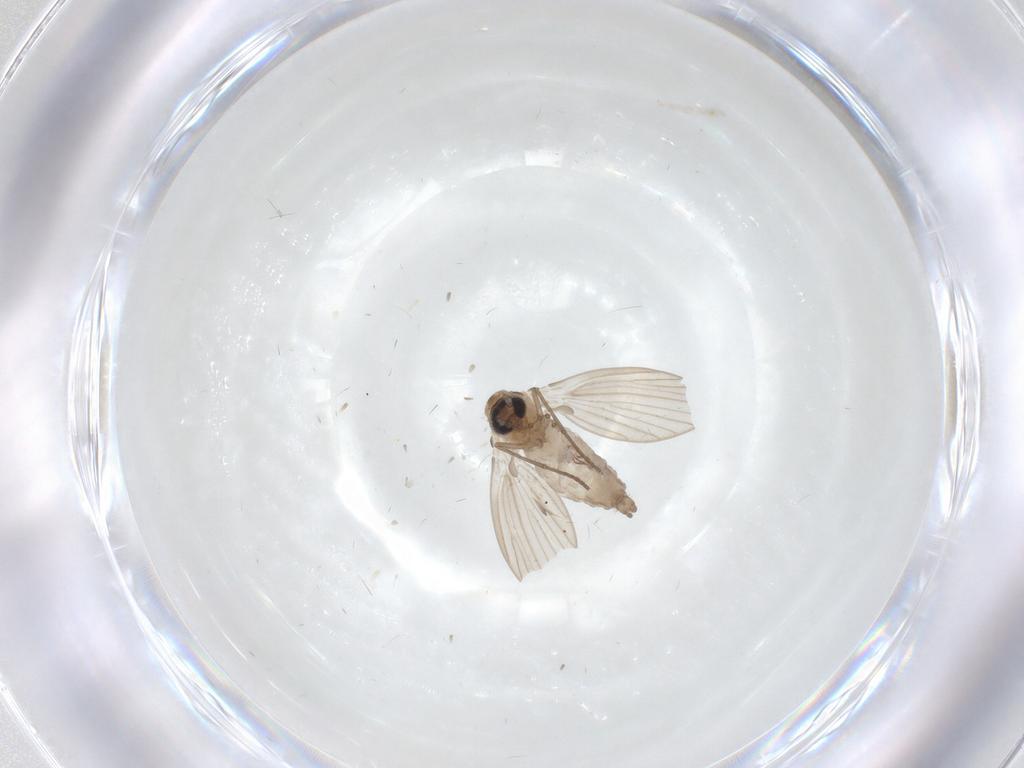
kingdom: Animalia
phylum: Arthropoda
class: Insecta
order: Diptera
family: Psychodidae
